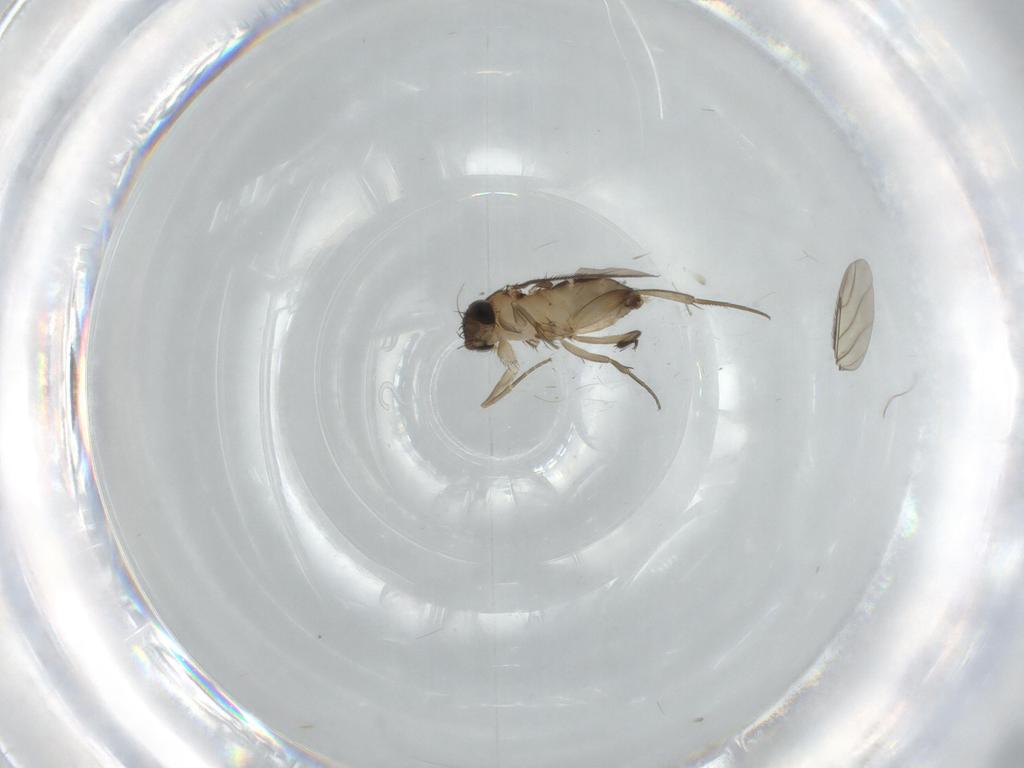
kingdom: Animalia
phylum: Arthropoda
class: Insecta
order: Diptera
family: Phoridae
